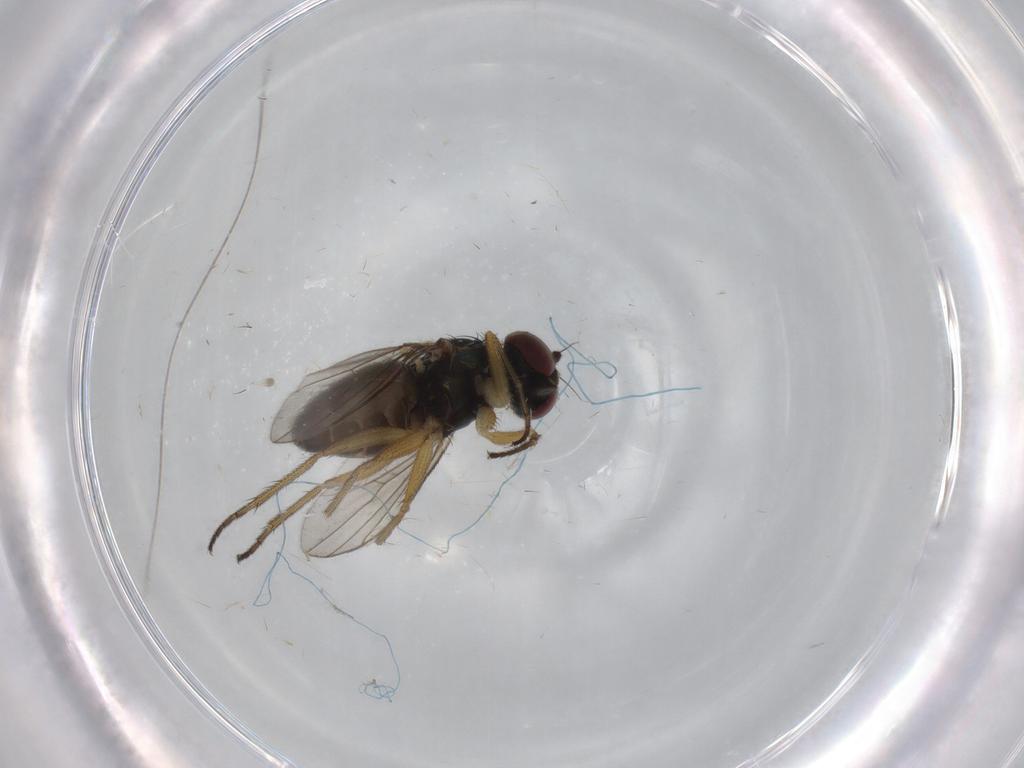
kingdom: Animalia
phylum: Arthropoda
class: Insecta
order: Diptera
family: Dolichopodidae
